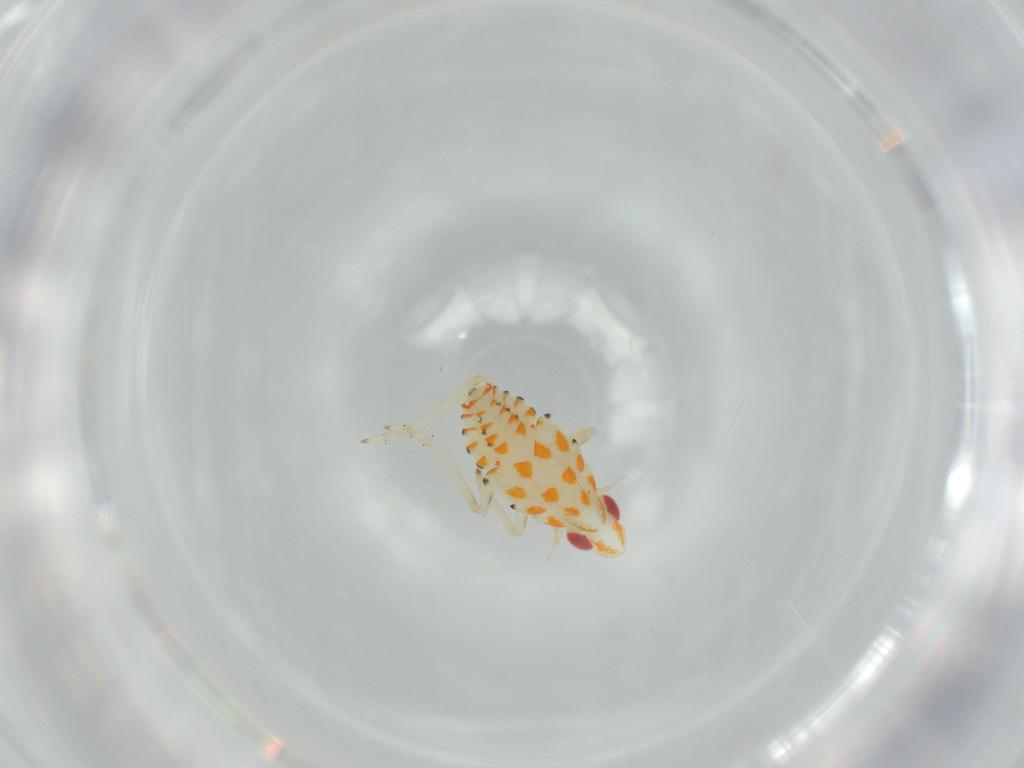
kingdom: Animalia
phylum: Arthropoda
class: Insecta
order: Hemiptera
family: Tropiduchidae
